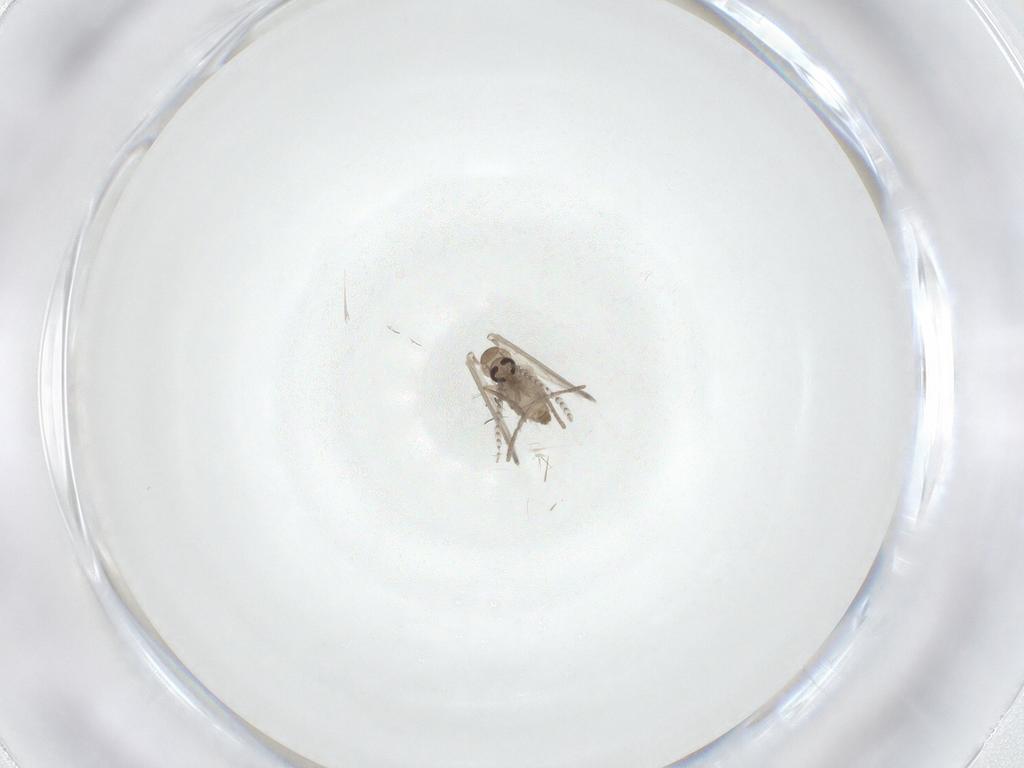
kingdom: Animalia
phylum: Arthropoda
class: Insecta
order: Diptera
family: Psychodidae
